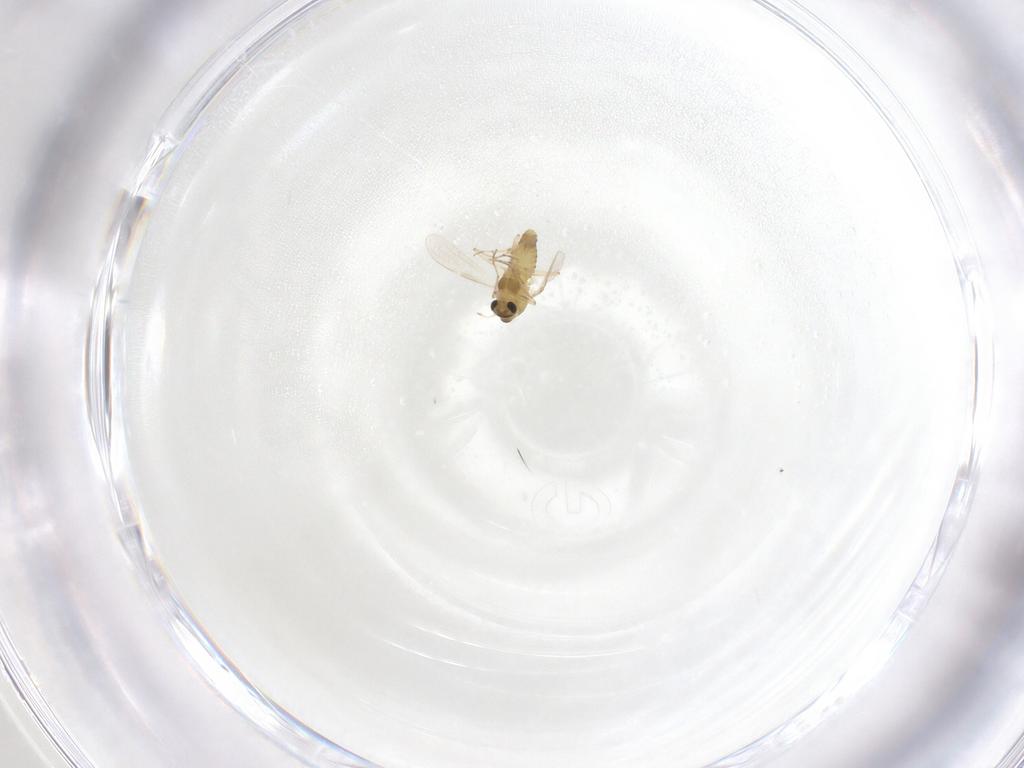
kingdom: Animalia
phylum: Arthropoda
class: Insecta
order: Diptera
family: Chironomidae
